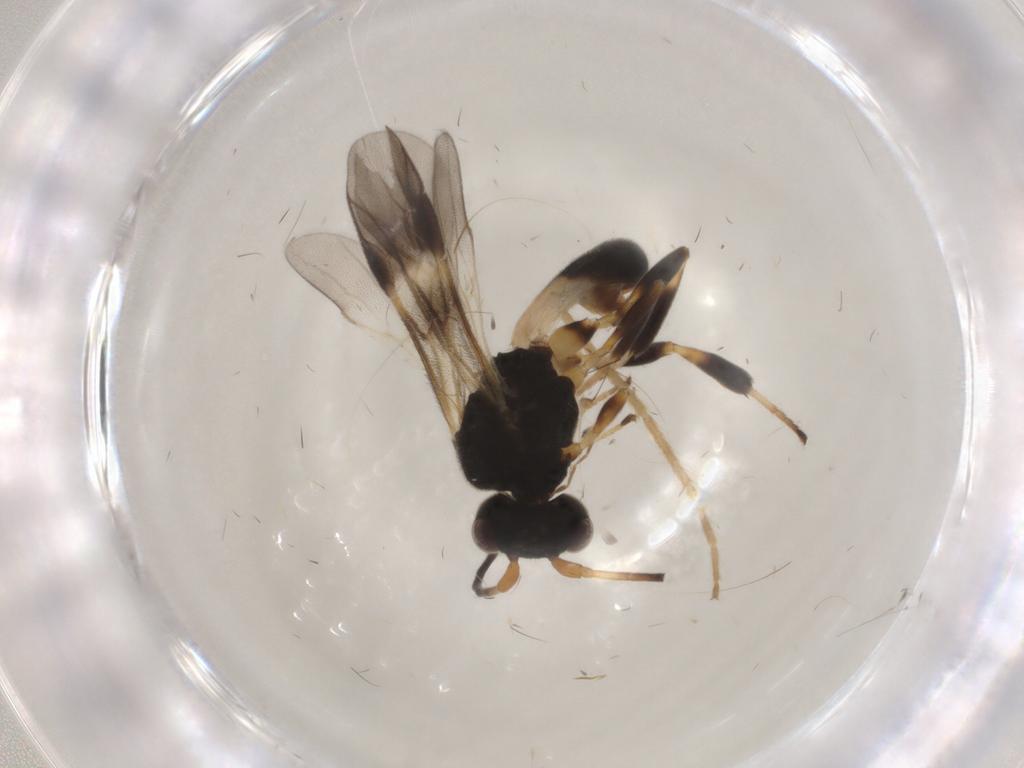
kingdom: Animalia
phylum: Arthropoda
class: Insecta
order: Hymenoptera
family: Braconidae
